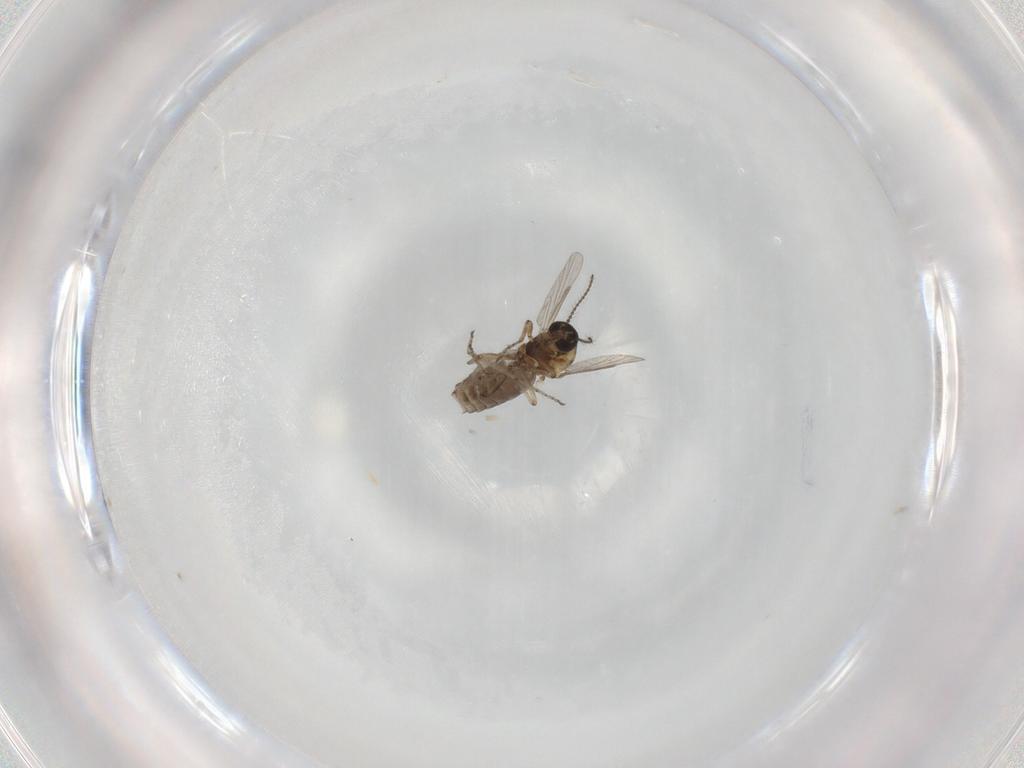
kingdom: Animalia
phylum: Arthropoda
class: Insecta
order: Diptera
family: Ceratopogonidae
